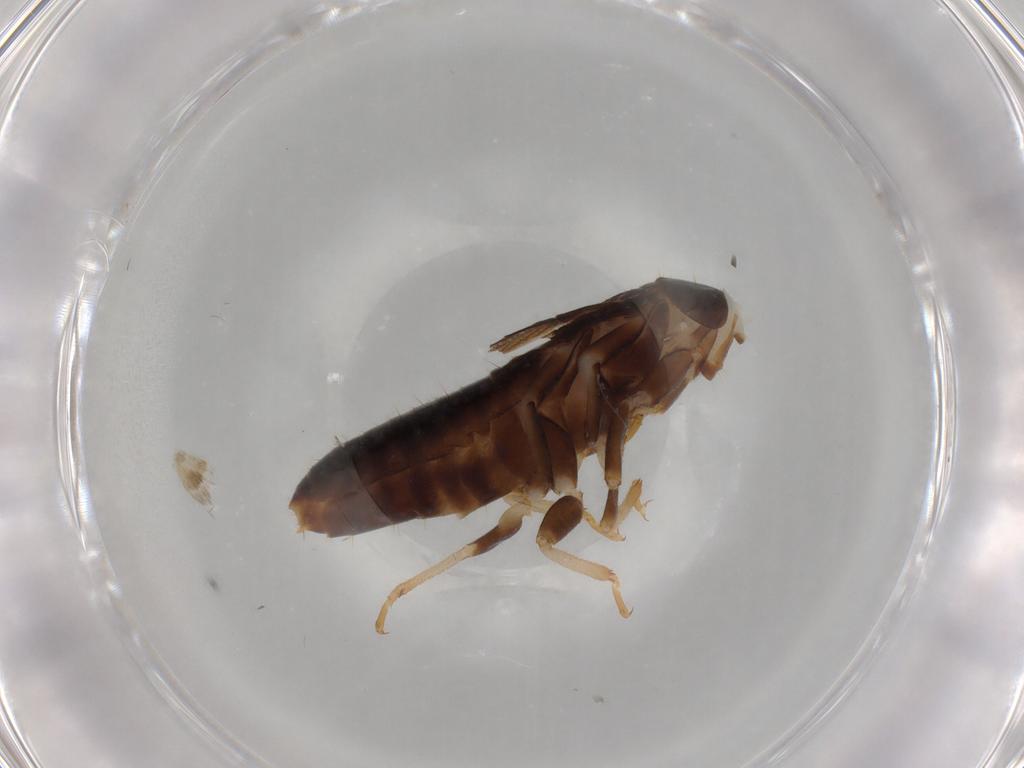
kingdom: Animalia
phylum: Arthropoda
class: Insecta
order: Blattodea
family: Kalotermitidae
